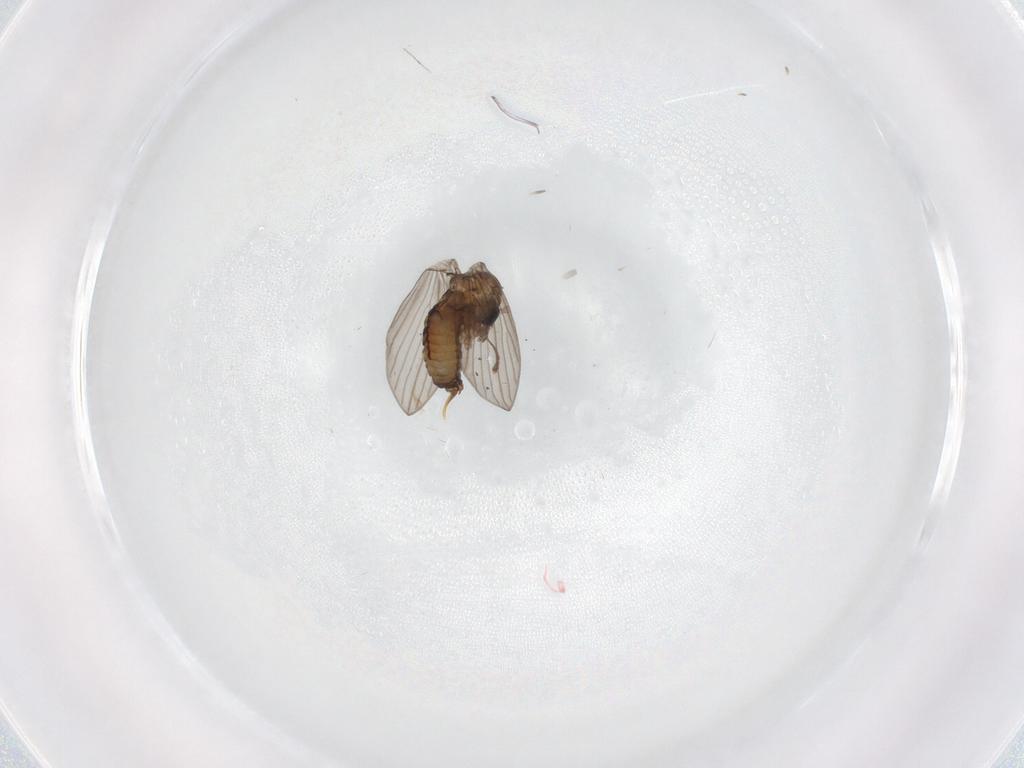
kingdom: Animalia
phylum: Arthropoda
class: Insecta
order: Diptera
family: Psychodidae
